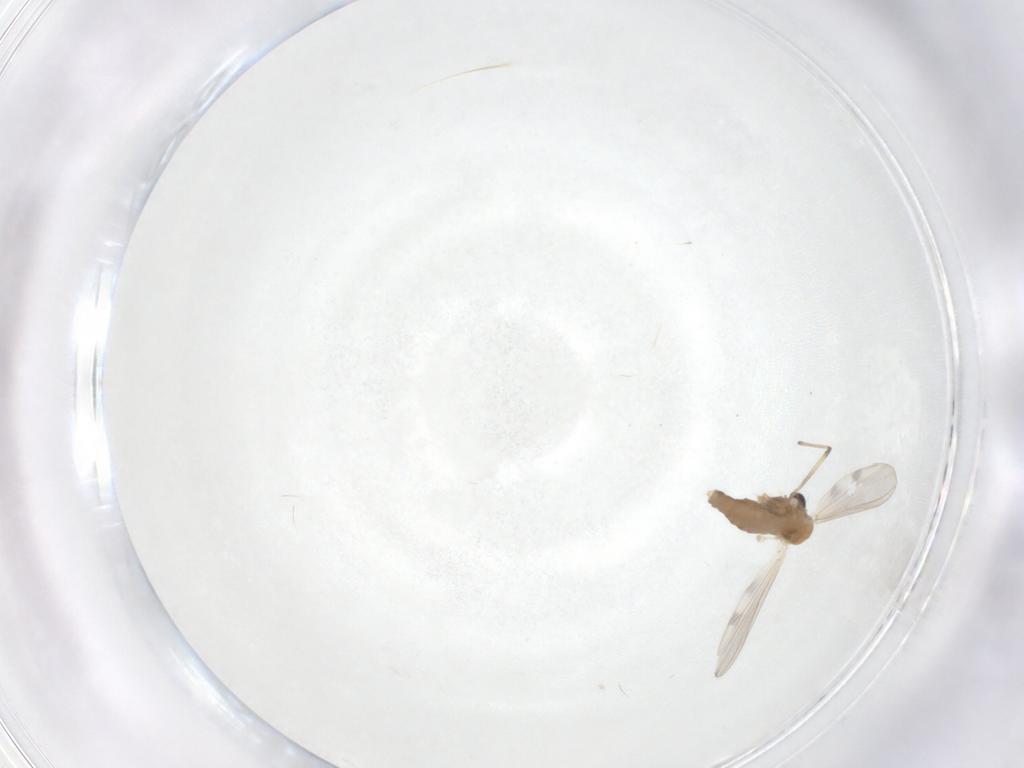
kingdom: Animalia
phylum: Arthropoda
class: Insecta
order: Diptera
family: Chironomidae
